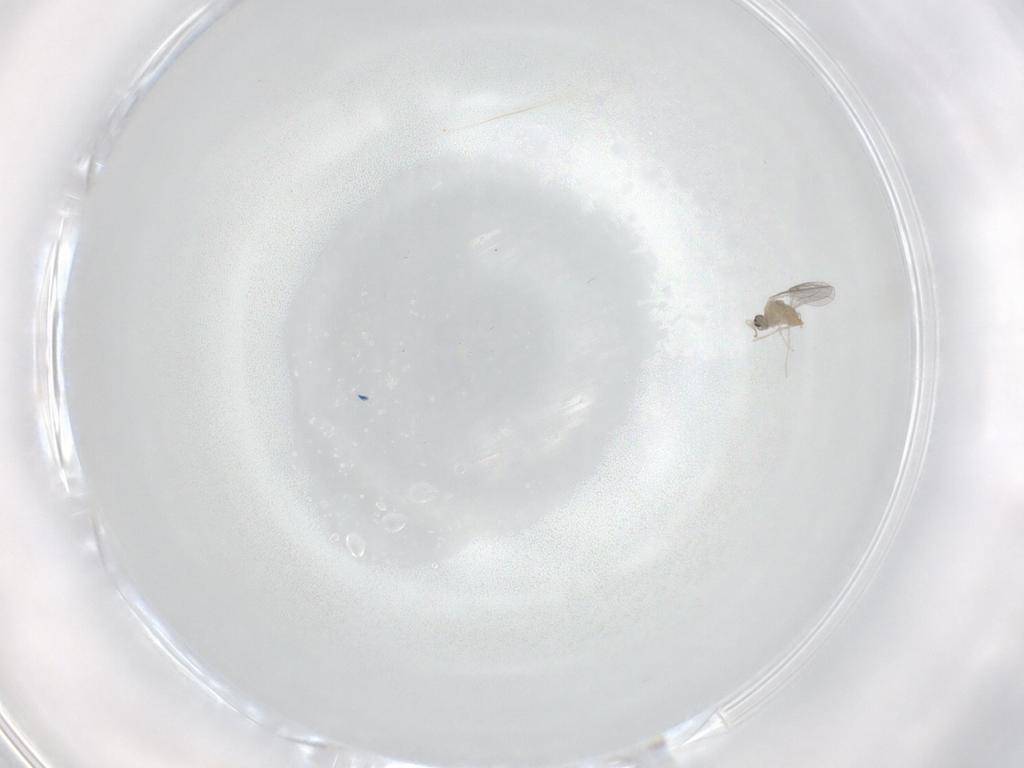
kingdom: Animalia
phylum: Arthropoda
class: Insecta
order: Diptera
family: Cecidomyiidae
